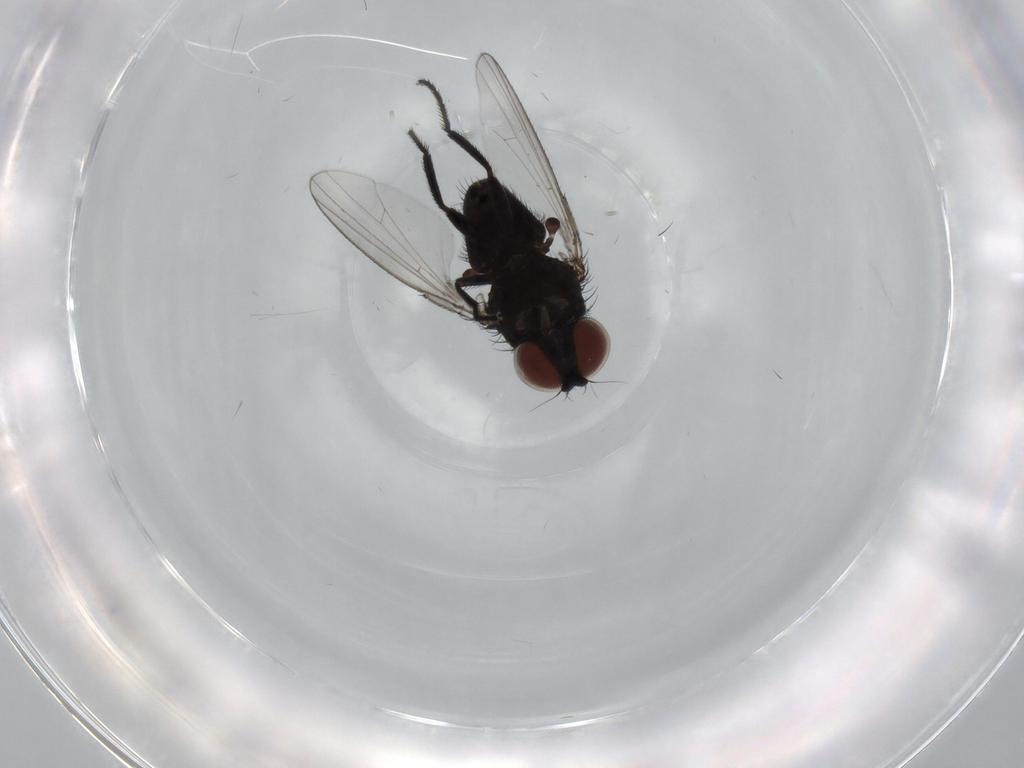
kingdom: Animalia
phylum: Arthropoda
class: Insecta
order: Diptera
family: Milichiidae
